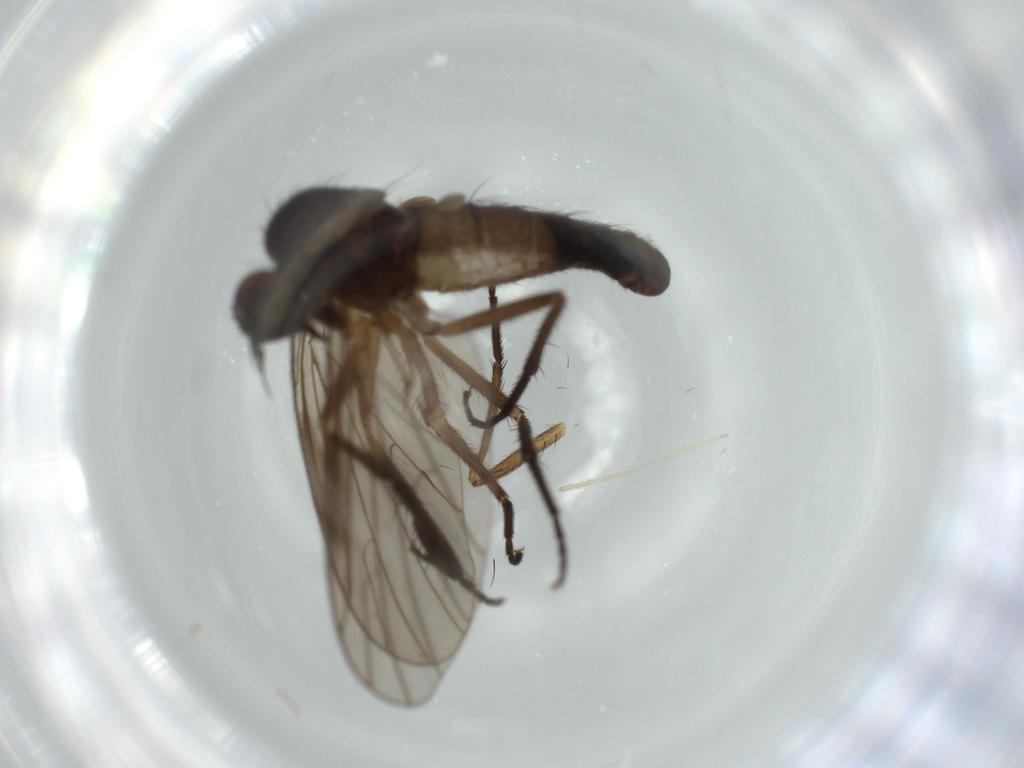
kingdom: Animalia
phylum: Arthropoda
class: Insecta
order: Diptera
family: Empididae
